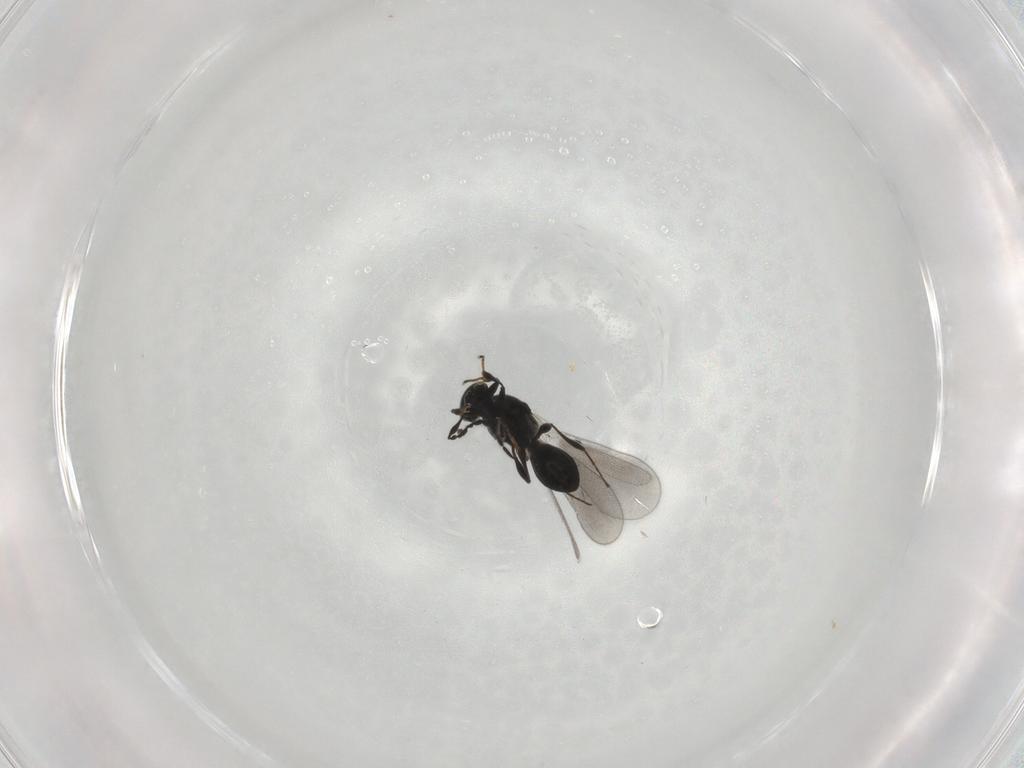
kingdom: Animalia
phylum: Arthropoda
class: Insecta
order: Hymenoptera
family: Platygastridae
